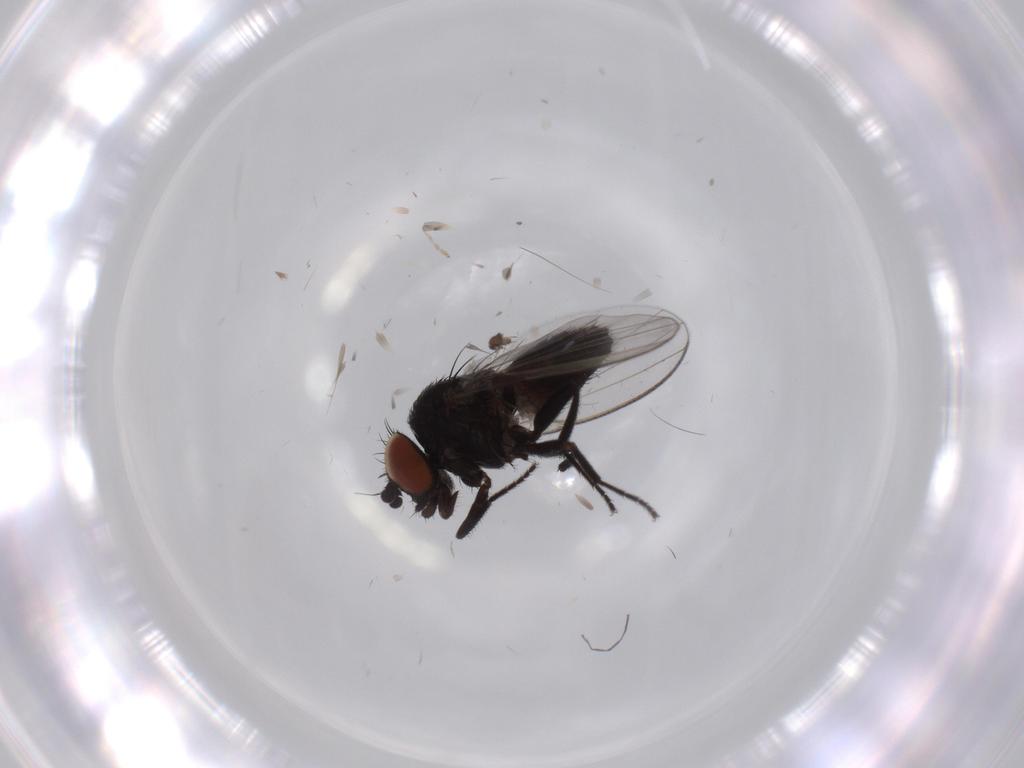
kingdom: Animalia
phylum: Arthropoda
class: Insecta
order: Diptera
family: Milichiidae
